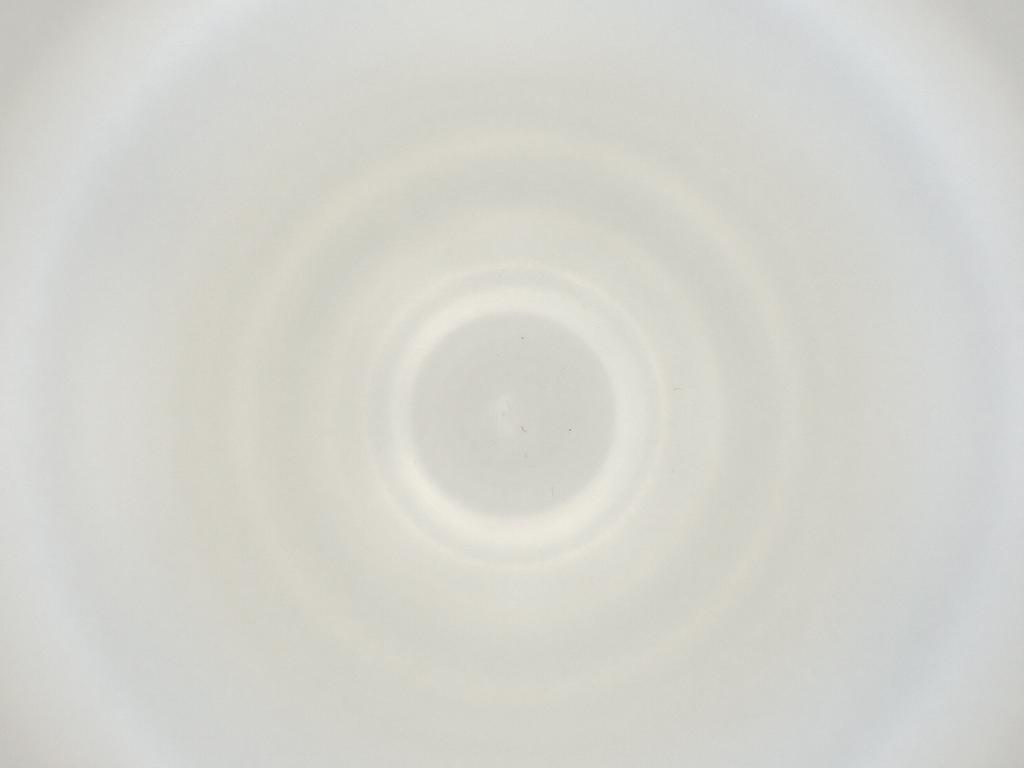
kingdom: Animalia
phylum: Arthropoda
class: Insecta
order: Diptera
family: Cecidomyiidae
